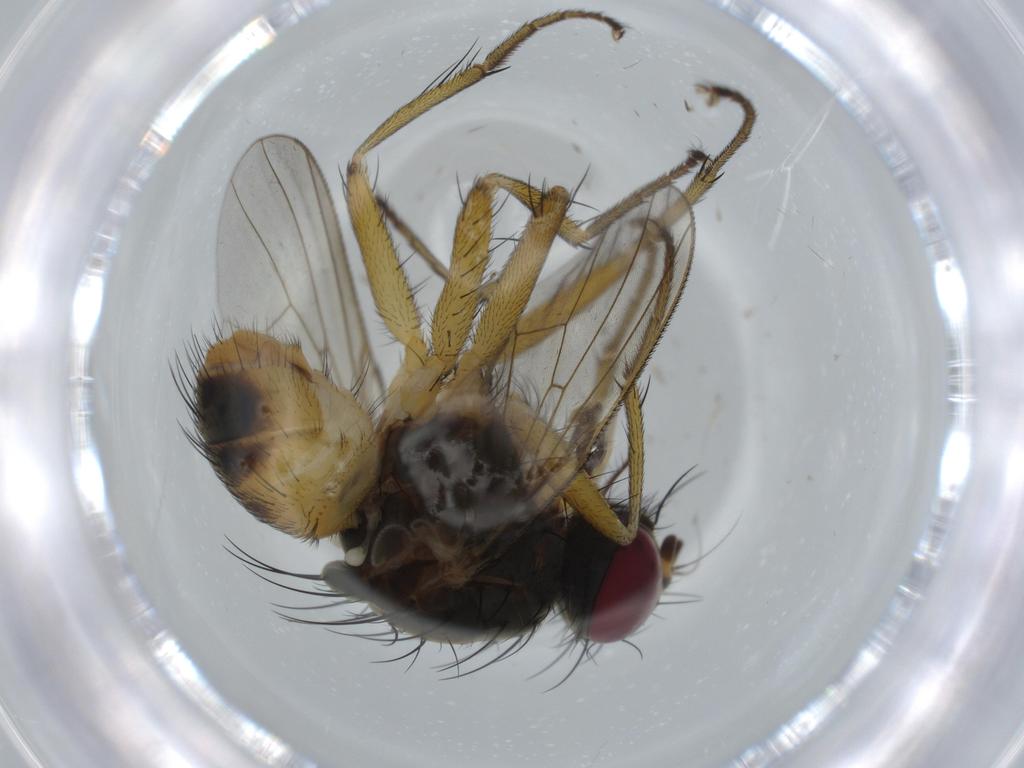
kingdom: Animalia
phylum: Arthropoda
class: Insecta
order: Diptera
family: Muscidae
